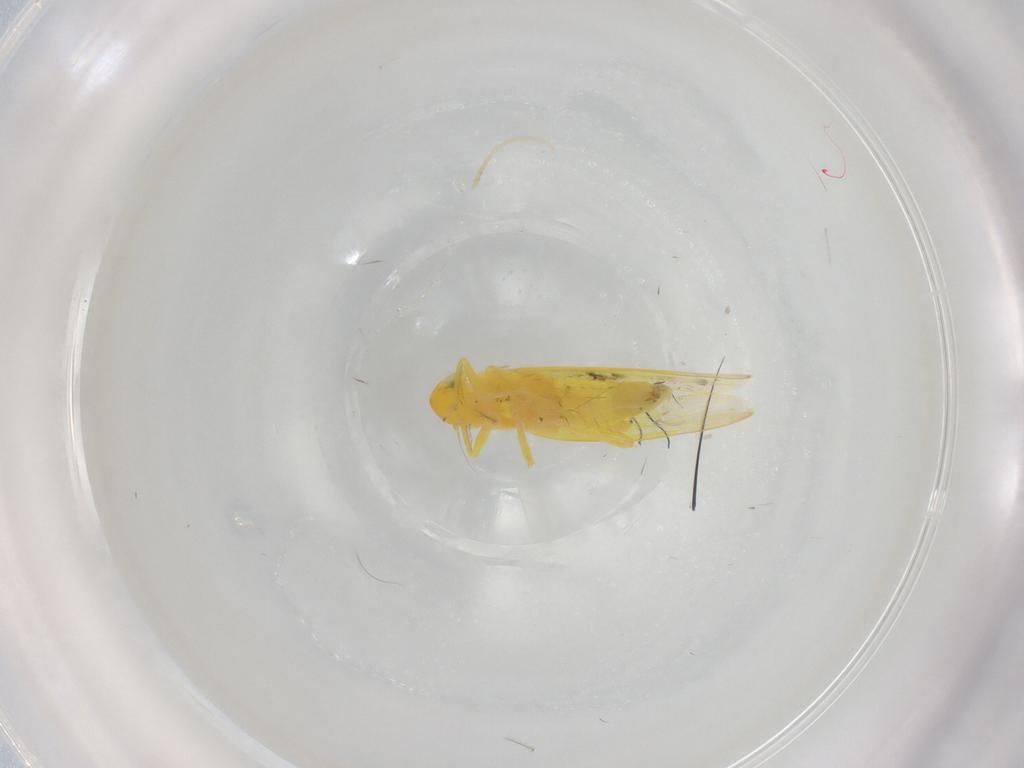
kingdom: Animalia
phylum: Arthropoda
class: Insecta
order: Hemiptera
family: Aleyrodidae
